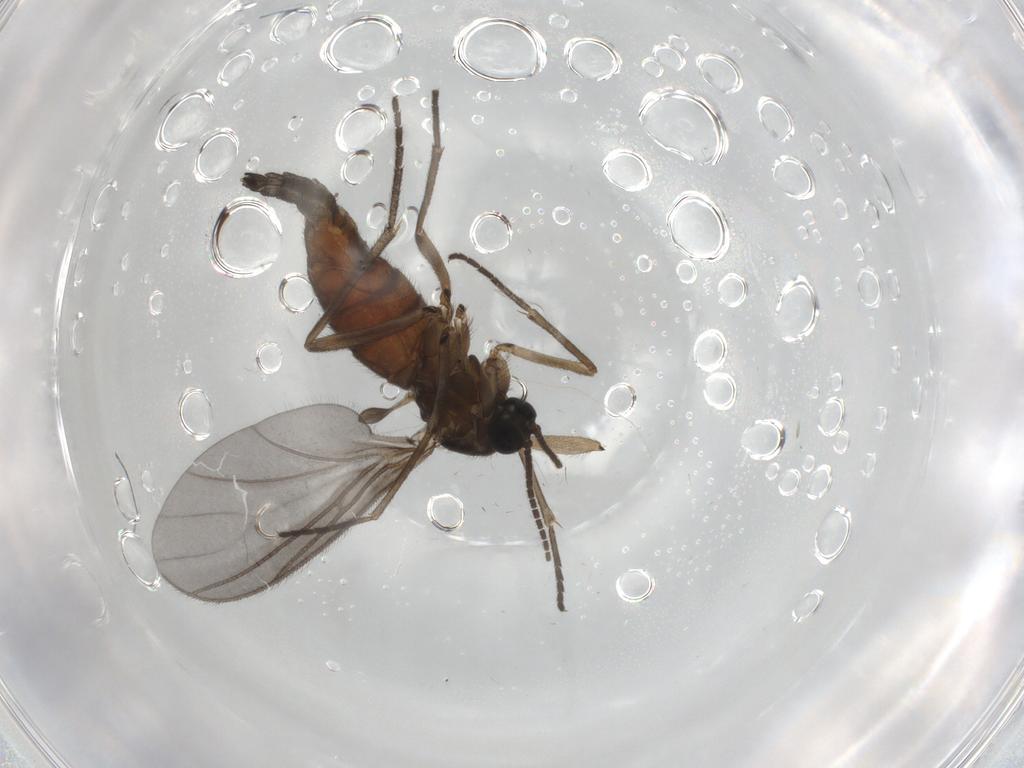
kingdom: Animalia
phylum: Arthropoda
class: Insecta
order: Diptera
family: Sciaridae
